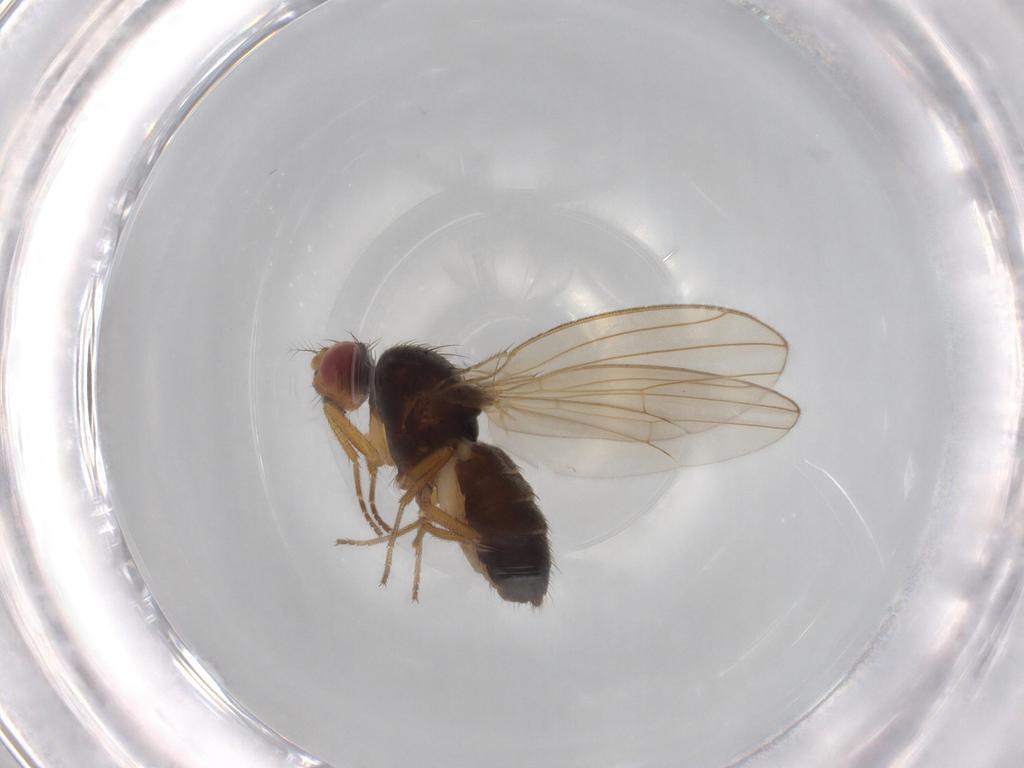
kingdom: Animalia
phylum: Arthropoda
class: Insecta
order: Diptera
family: Drosophilidae
